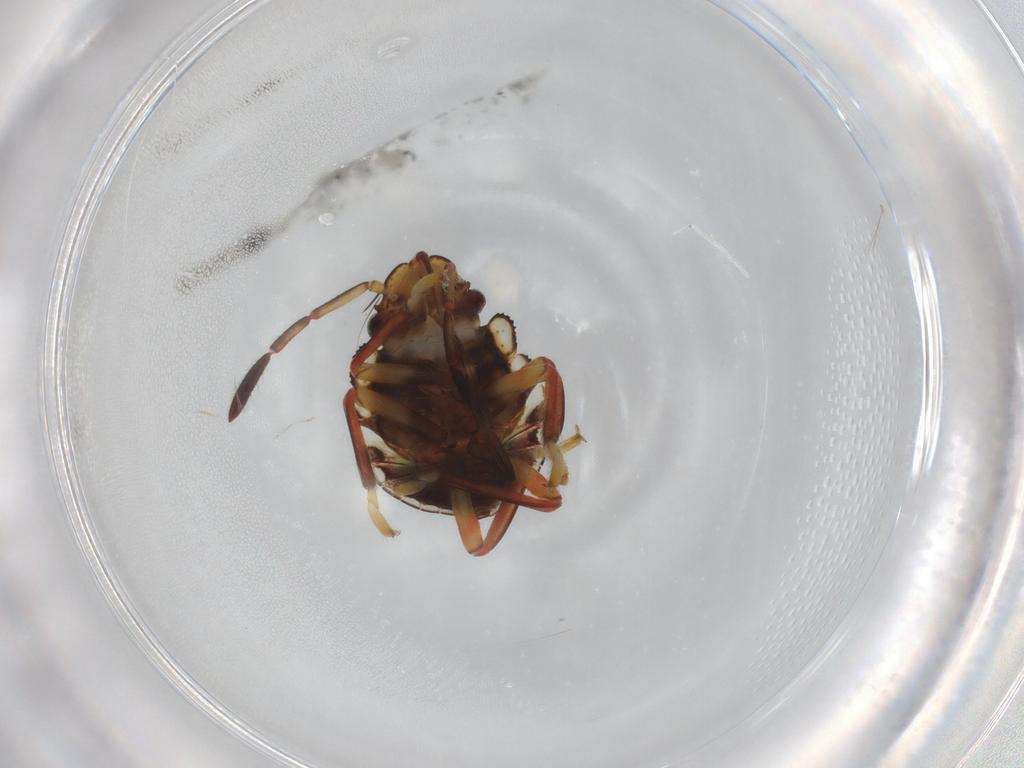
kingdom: Animalia
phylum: Arthropoda
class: Insecta
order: Hemiptera
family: Pentatomidae
